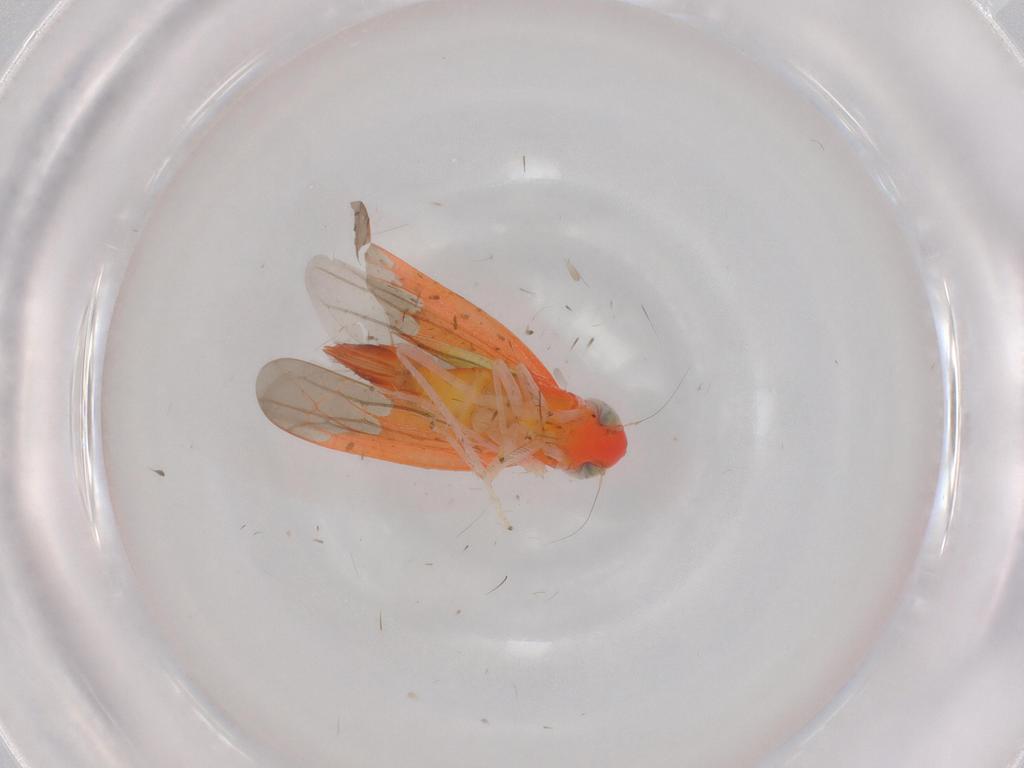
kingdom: Animalia
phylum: Arthropoda
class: Insecta
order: Hemiptera
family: Cicadellidae
